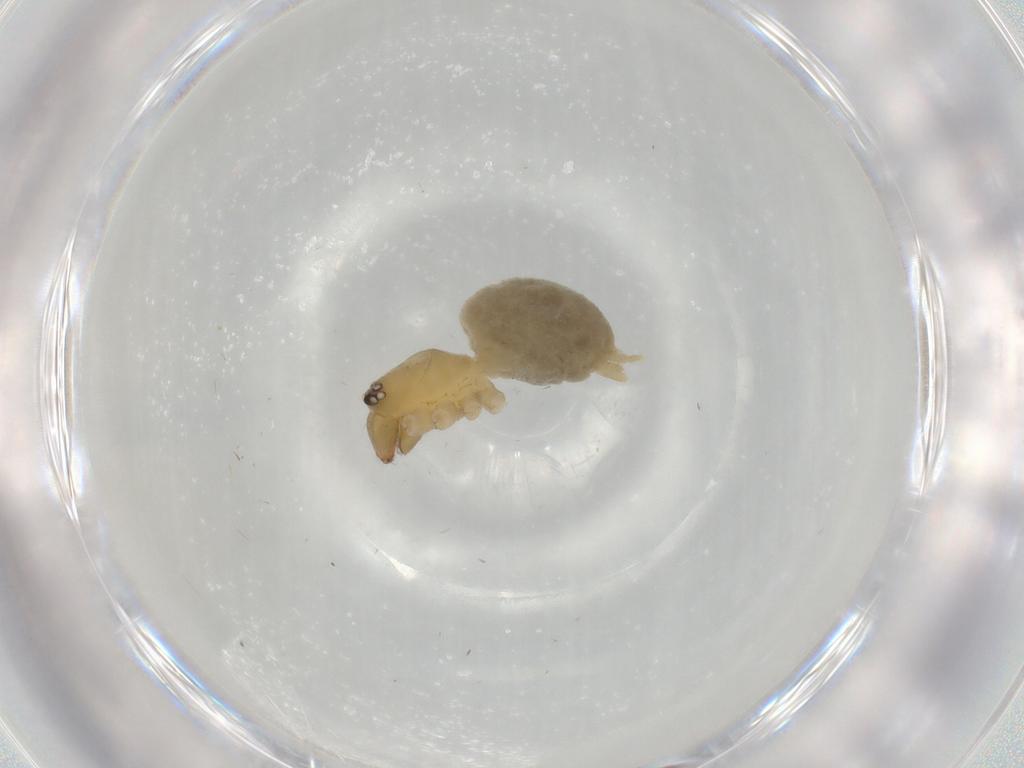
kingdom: Animalia
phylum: Arthropoda
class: Arachnida
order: Araneae
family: Cheiracanthiidae
